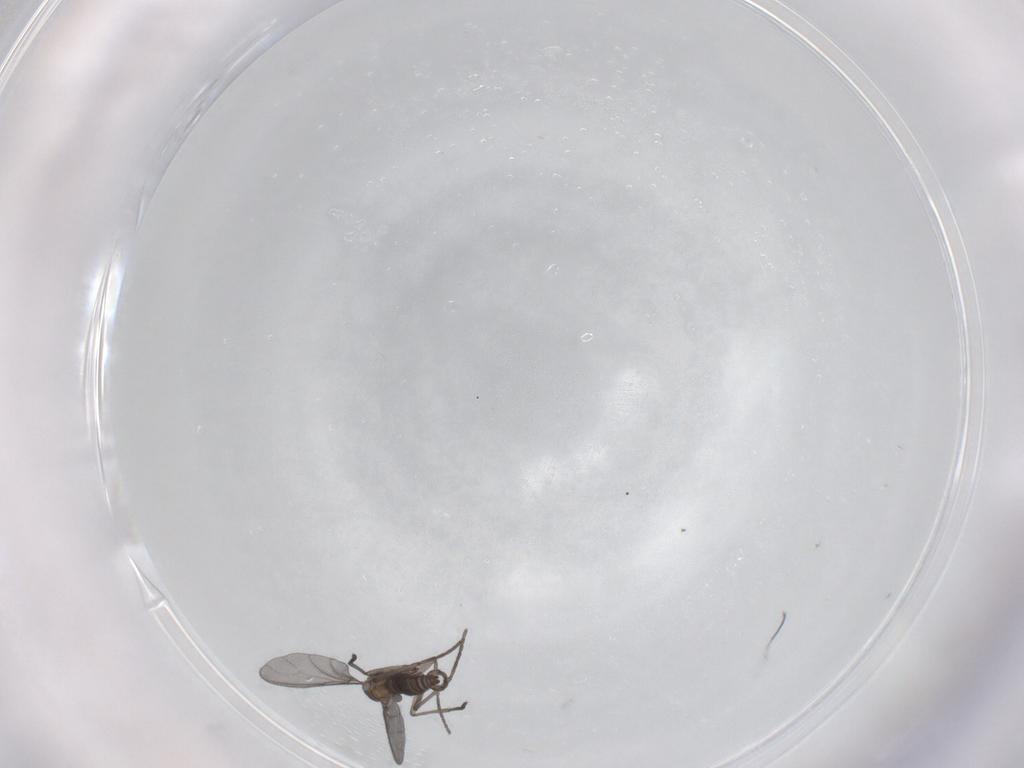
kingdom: Animalia
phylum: Arthropoda
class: Insecta
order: Diptera
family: Sciaridae
